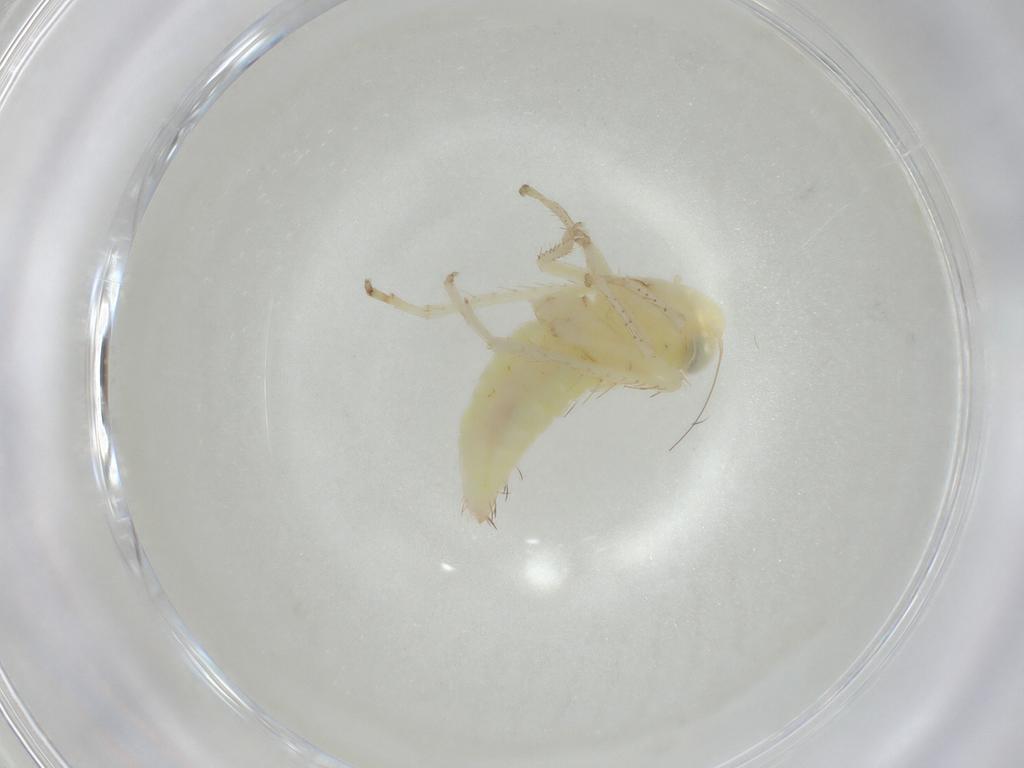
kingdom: Animalia
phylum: Arthropoda
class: Insecta
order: Hemiptera
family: Cicadellidae
